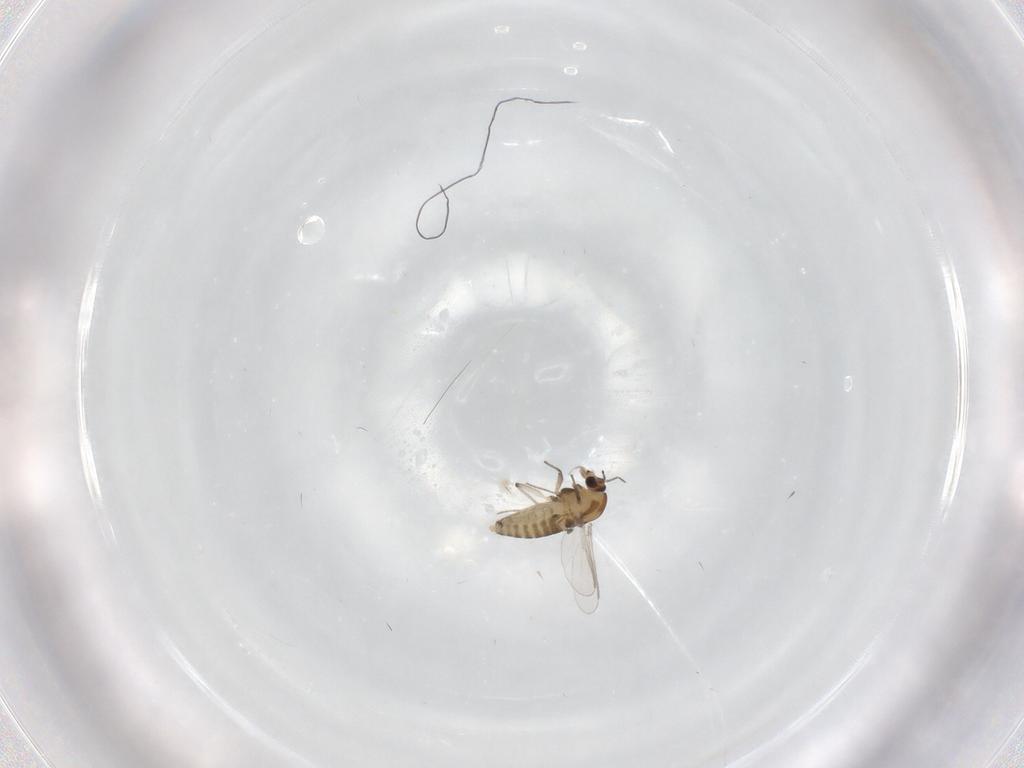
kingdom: Animalia
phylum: Arthropoda
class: Insecta
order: Diptera
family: Chironomidae
